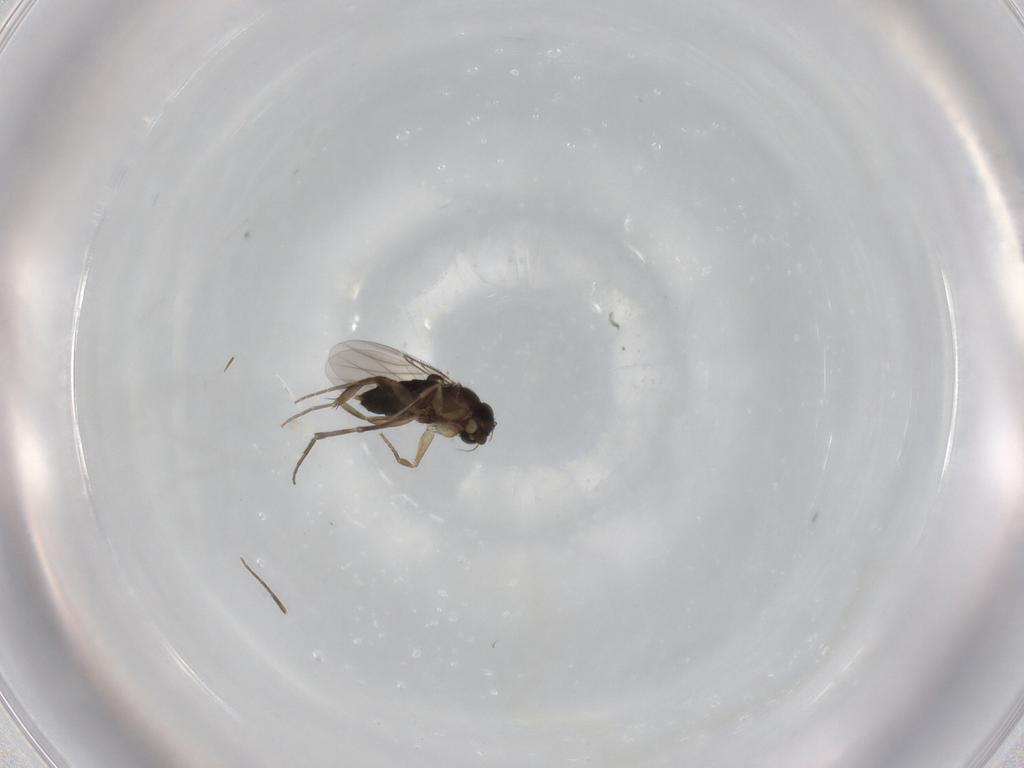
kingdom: Animalia
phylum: Arthropoda
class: Insecta
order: Diptera
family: Phoridae
